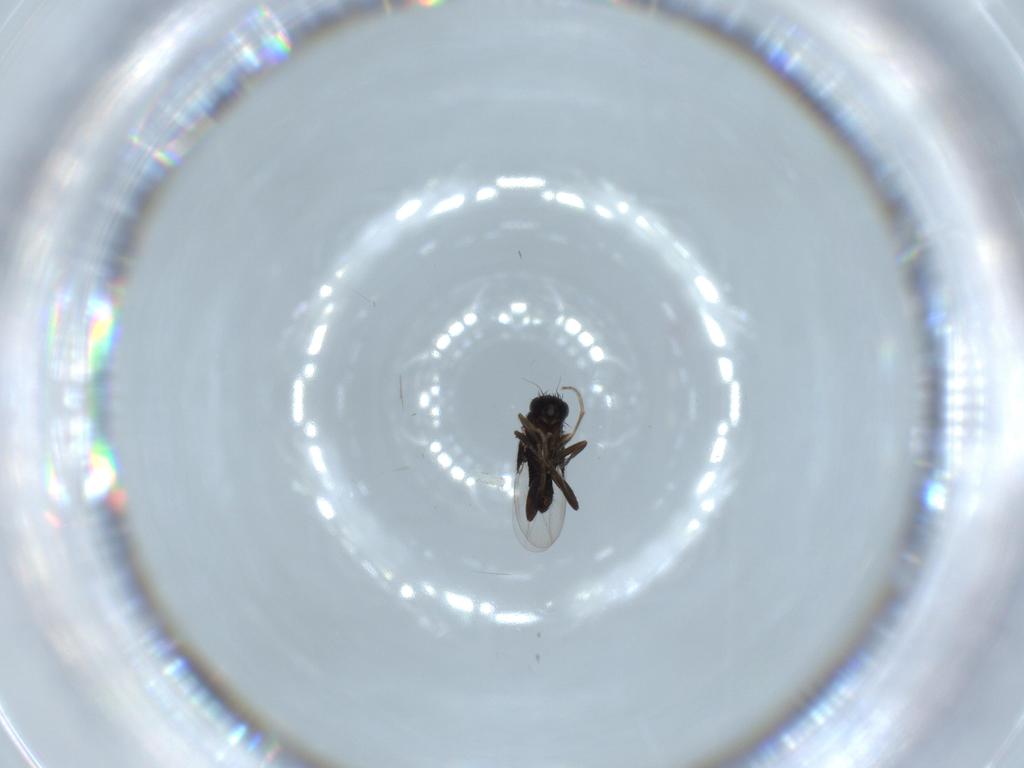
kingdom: Animalia
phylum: Arthropoda
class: Insecta
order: Diptera
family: Phoridae
